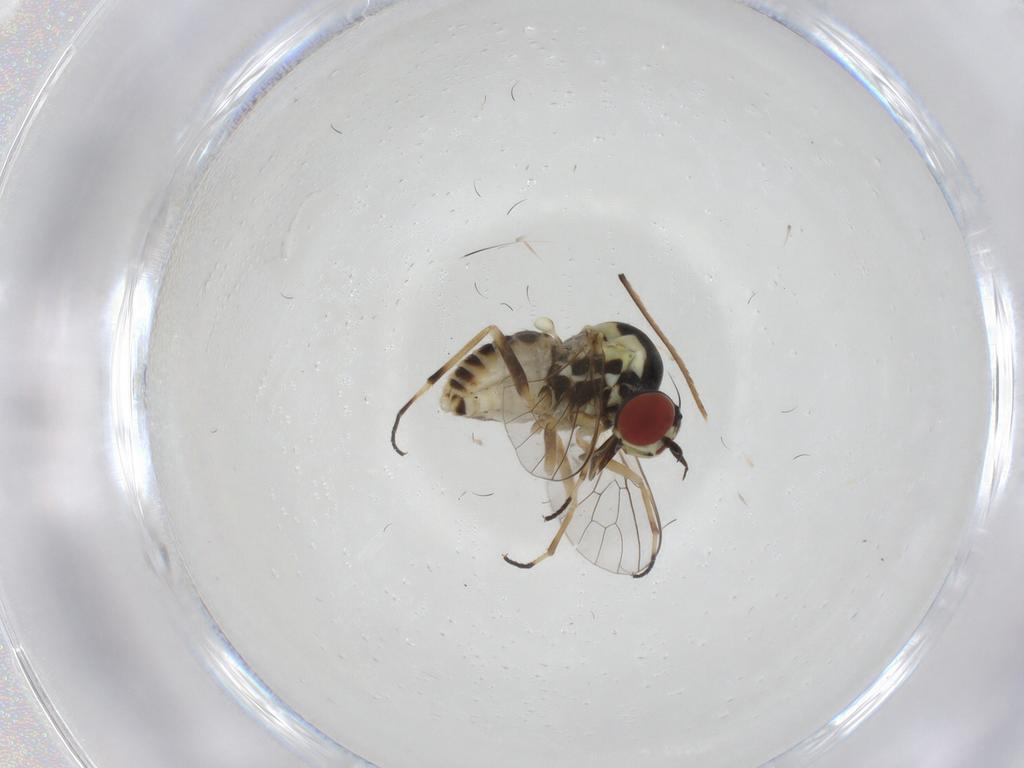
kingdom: Animalia
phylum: Arthropoda
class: Insecta
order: Diptera
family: Mythicomyiidae
